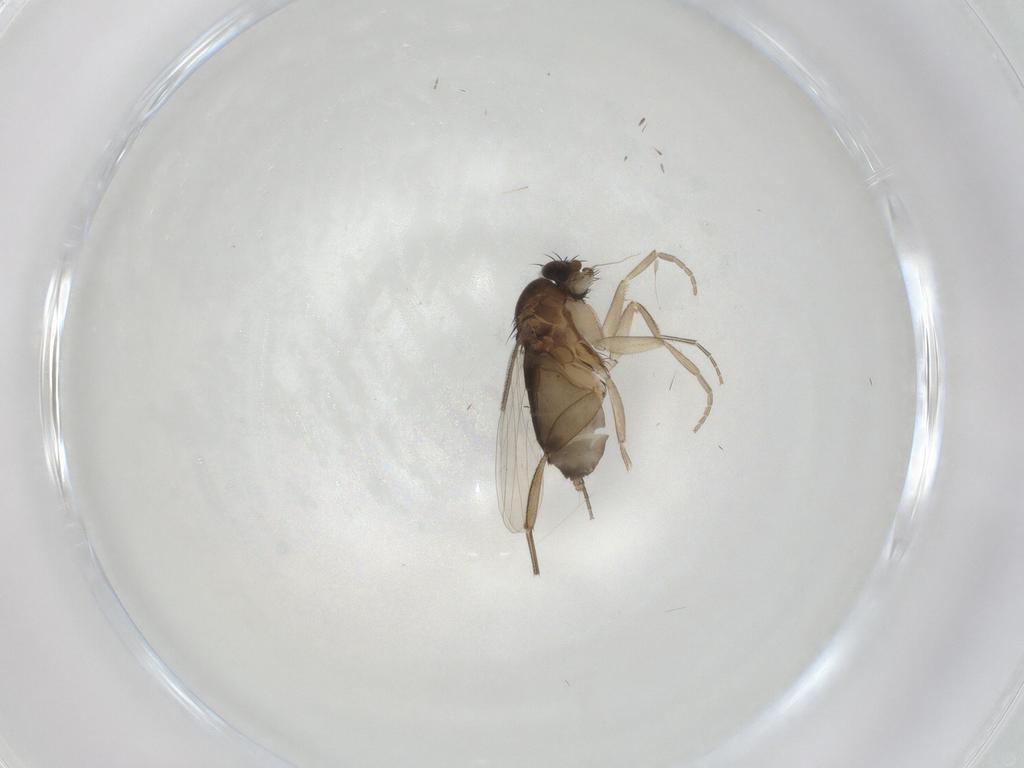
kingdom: Animalia
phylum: Arthropoda
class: Insecta
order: Diptera
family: Phoridae
